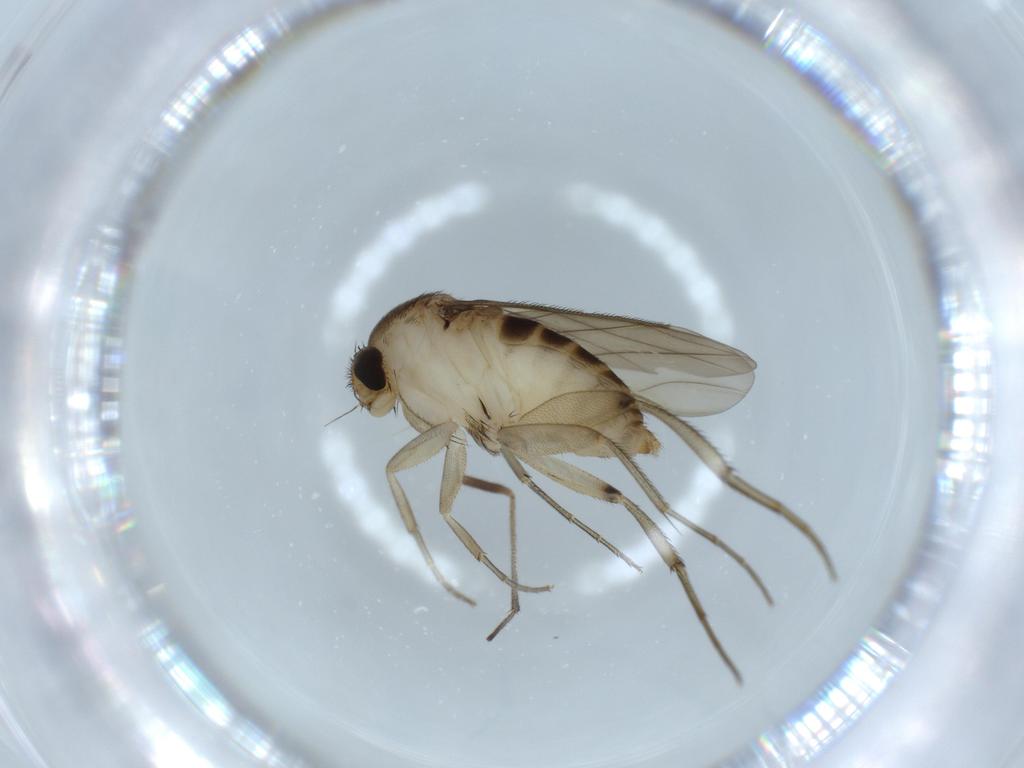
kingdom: Animalia
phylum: Arthropoda
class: Insecta
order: Diptera
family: Phoridae
